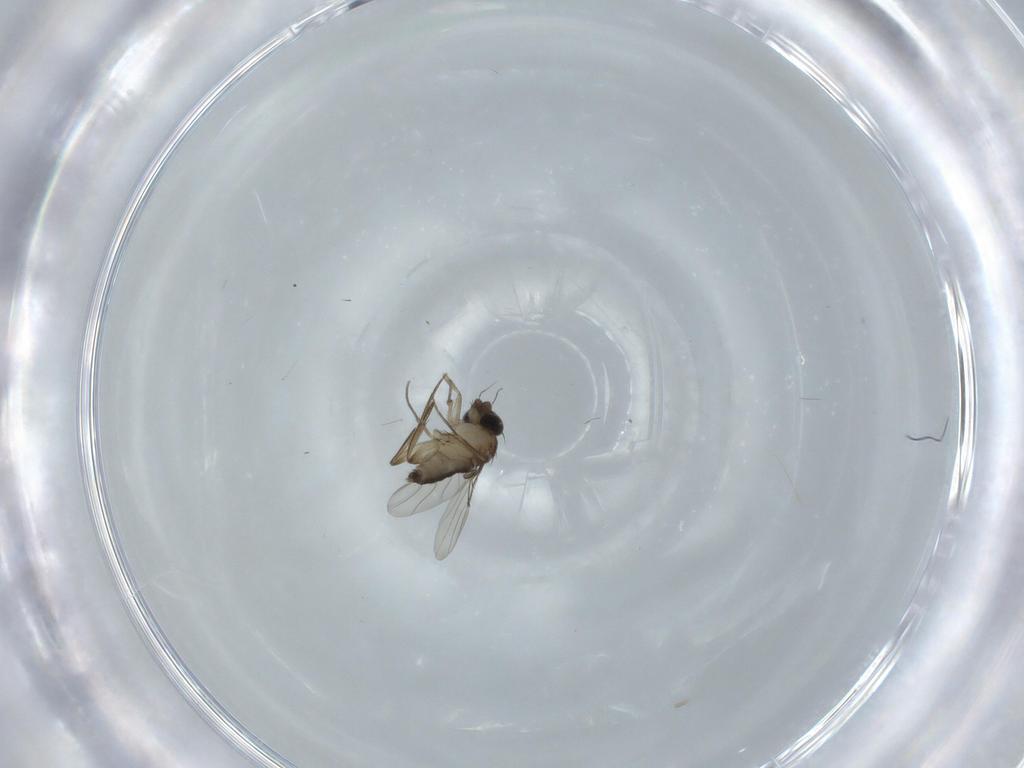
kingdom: Animalia
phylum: Arthropoda
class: Insecta
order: Diptera
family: Phoridae
